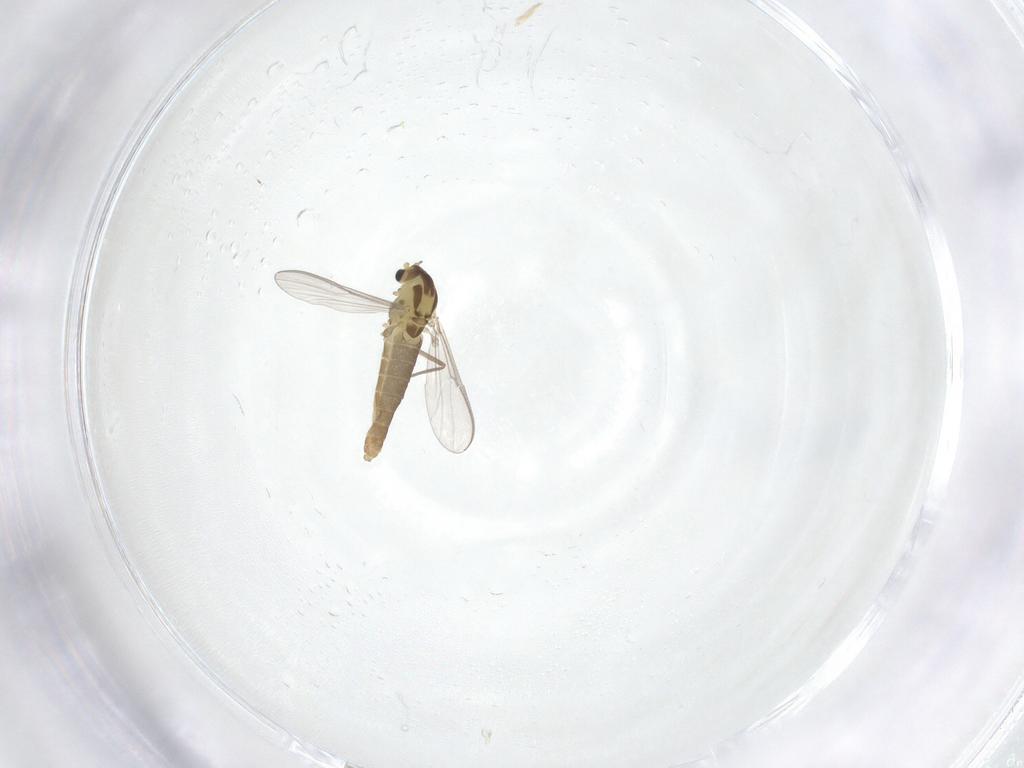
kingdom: Animalia
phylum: Arthropoda
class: Insecta
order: Diptera
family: Chironomidae
